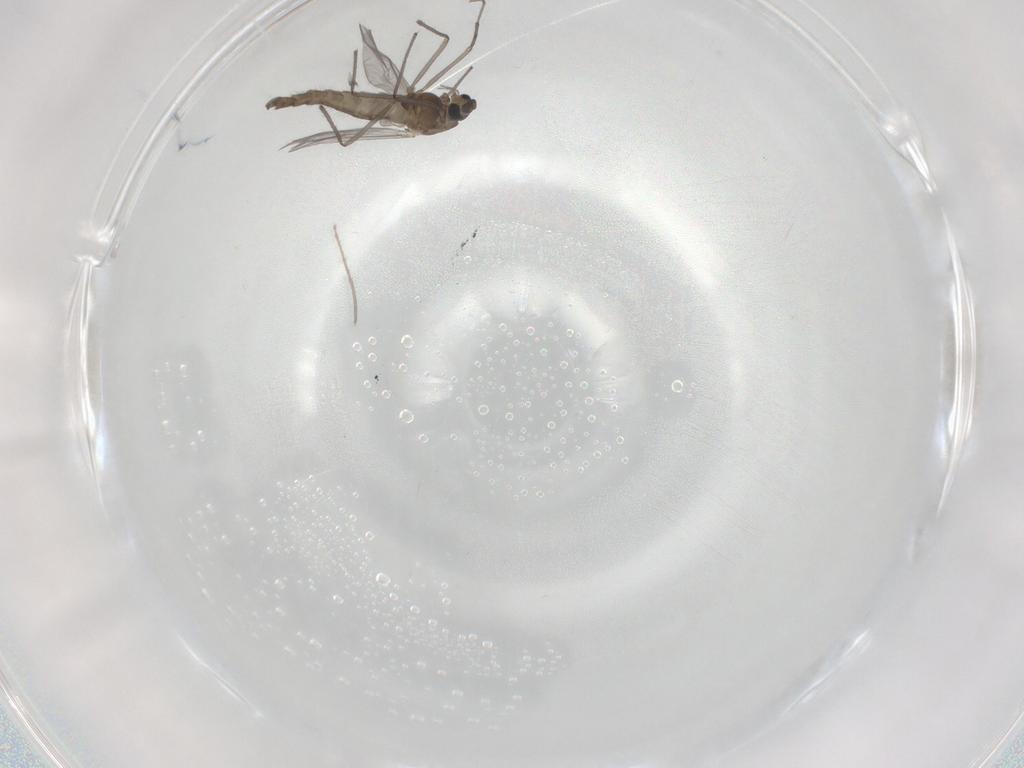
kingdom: Animalia
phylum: Arthropoda
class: Insecta
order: Diptera
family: Chironomidae
